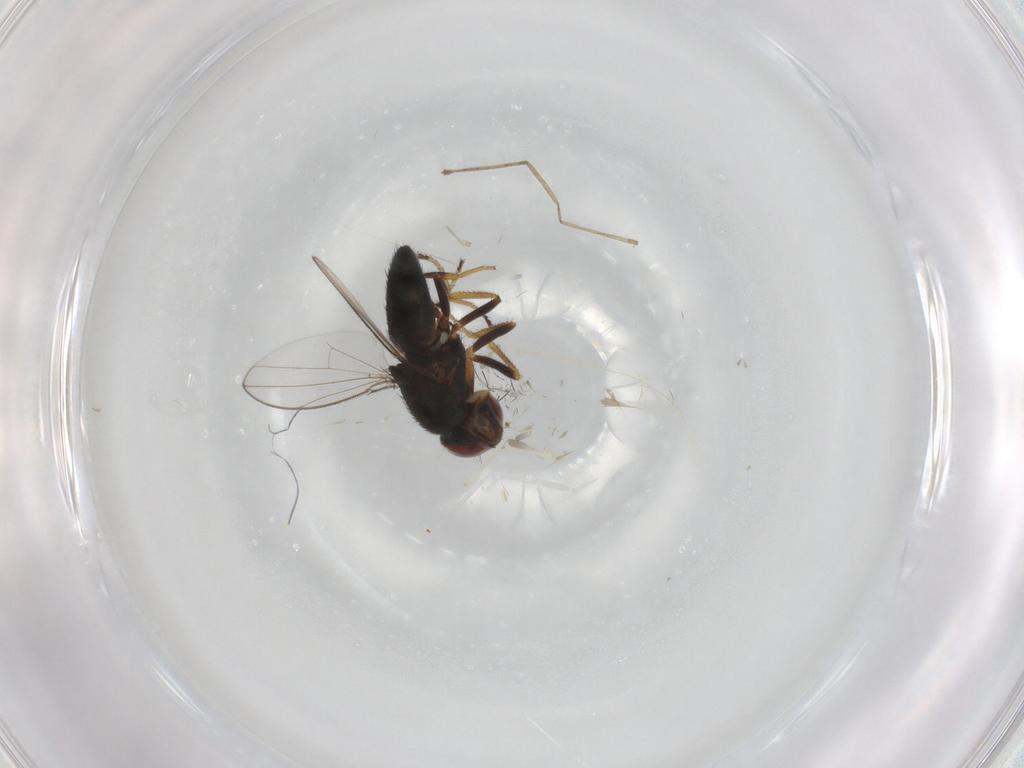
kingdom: Animalia
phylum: Arthropoda
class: Insecta
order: Diptera
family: Ephydridae
